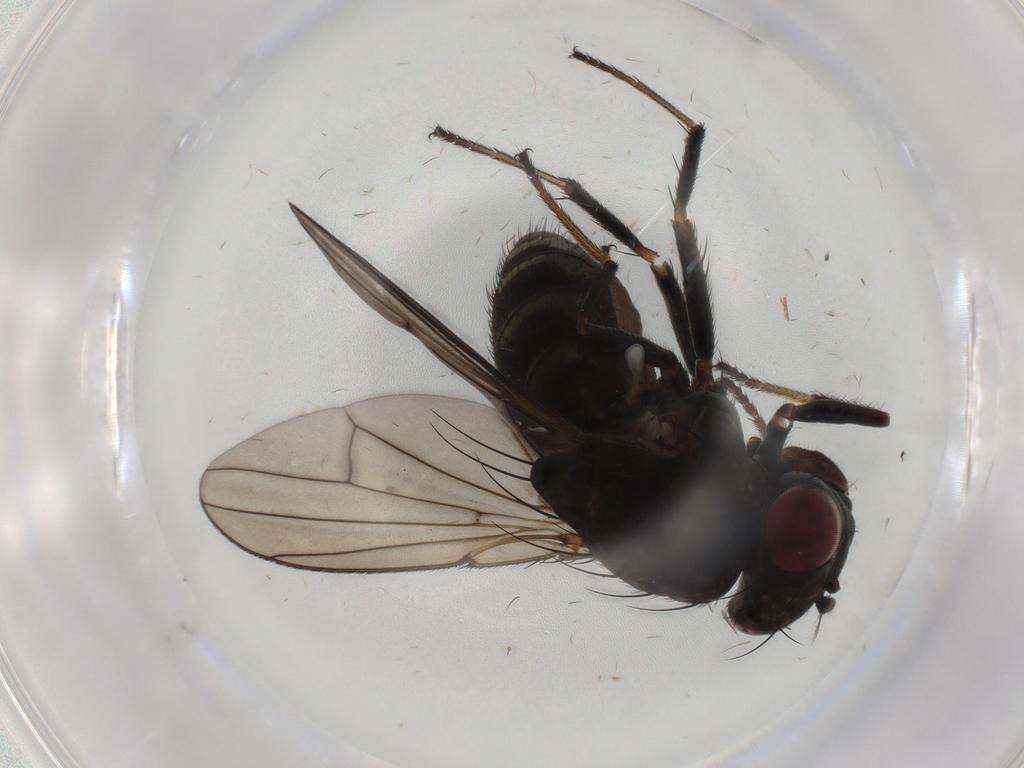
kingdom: Animalia
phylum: Arthropoda
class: Insecta
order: Diptera
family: Ephydridae
